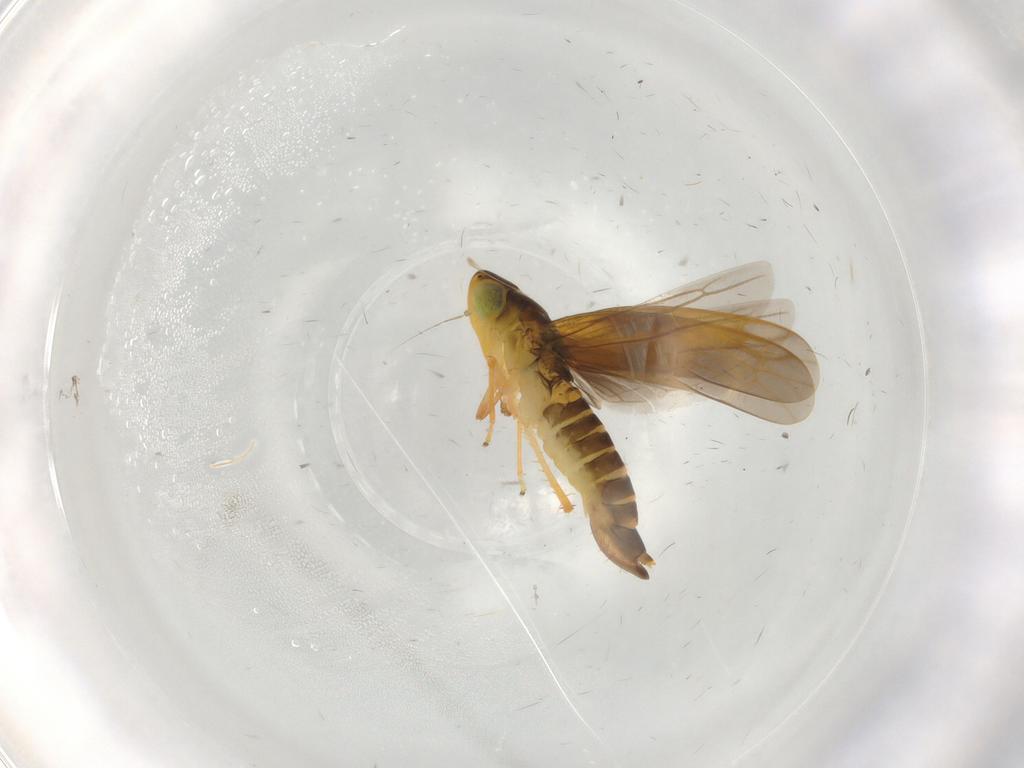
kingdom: Animalia
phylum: Arthropoda
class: Insecta
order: Hemiptera
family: Cicadellidae
